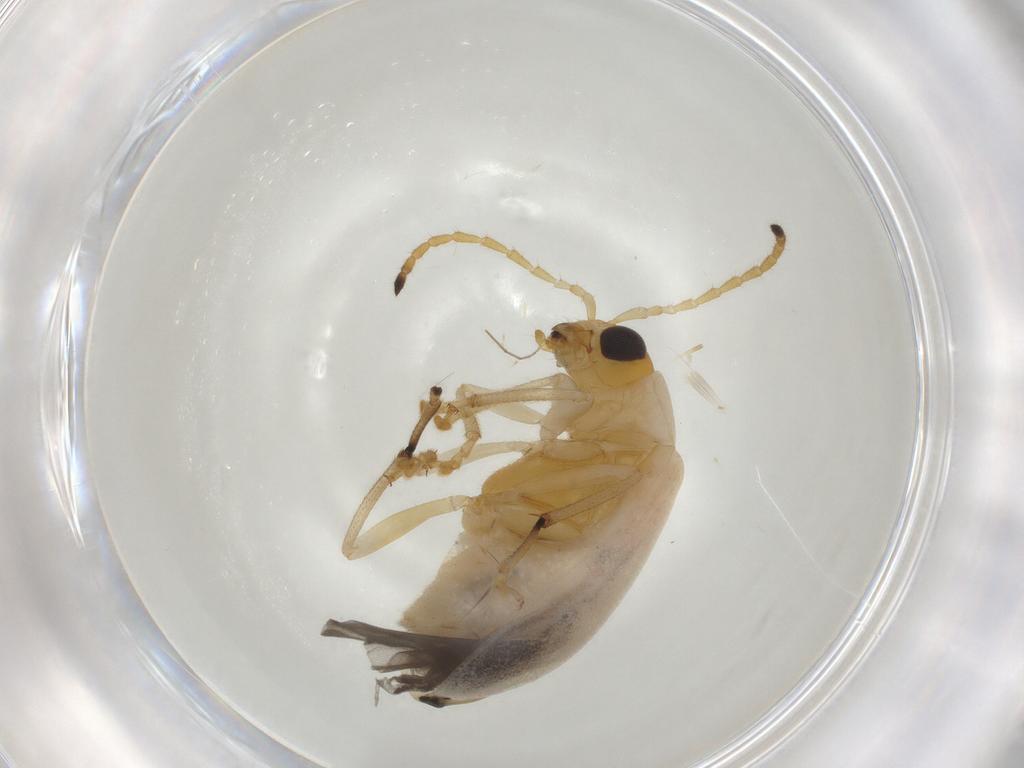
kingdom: Animalia
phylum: Arthropoda
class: Insecta
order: Coleoptera
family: Chrysomelidae
